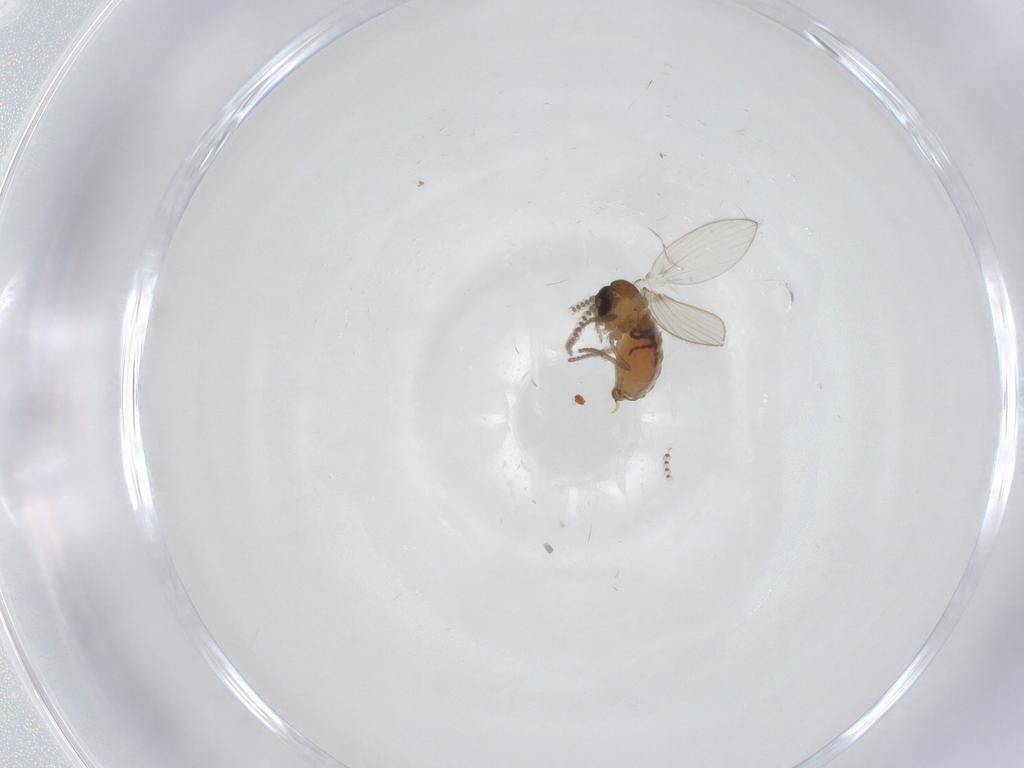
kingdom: Animalia
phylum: Arthropoda
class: Insecta
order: Diptera
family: Psychodidae
